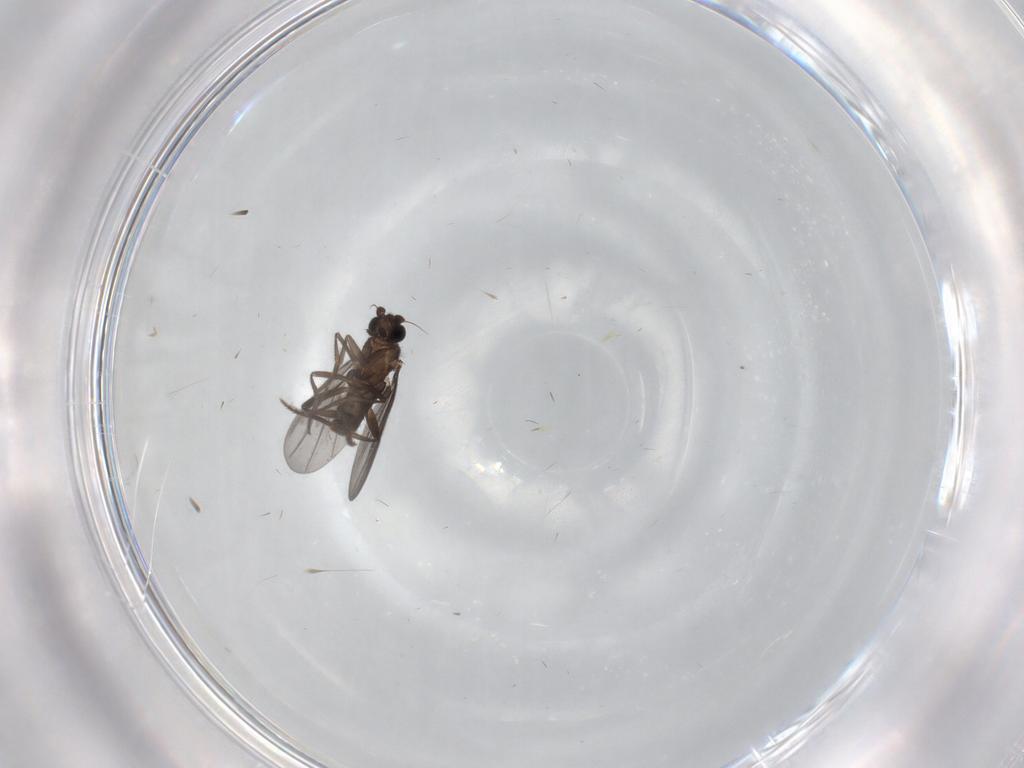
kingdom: Animalia
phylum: Arthropoda
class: Insecta
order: Diptera
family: Phoridae
